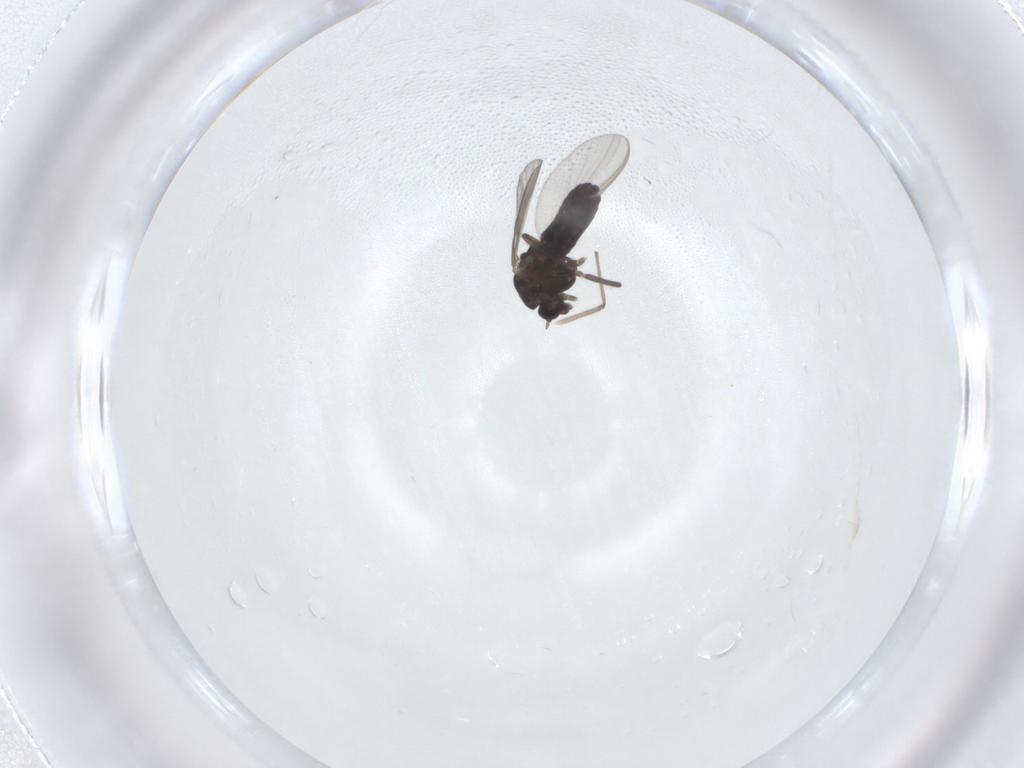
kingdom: Animalia
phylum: Arthropoda
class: Insecta
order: Diptera
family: Chironomidae
